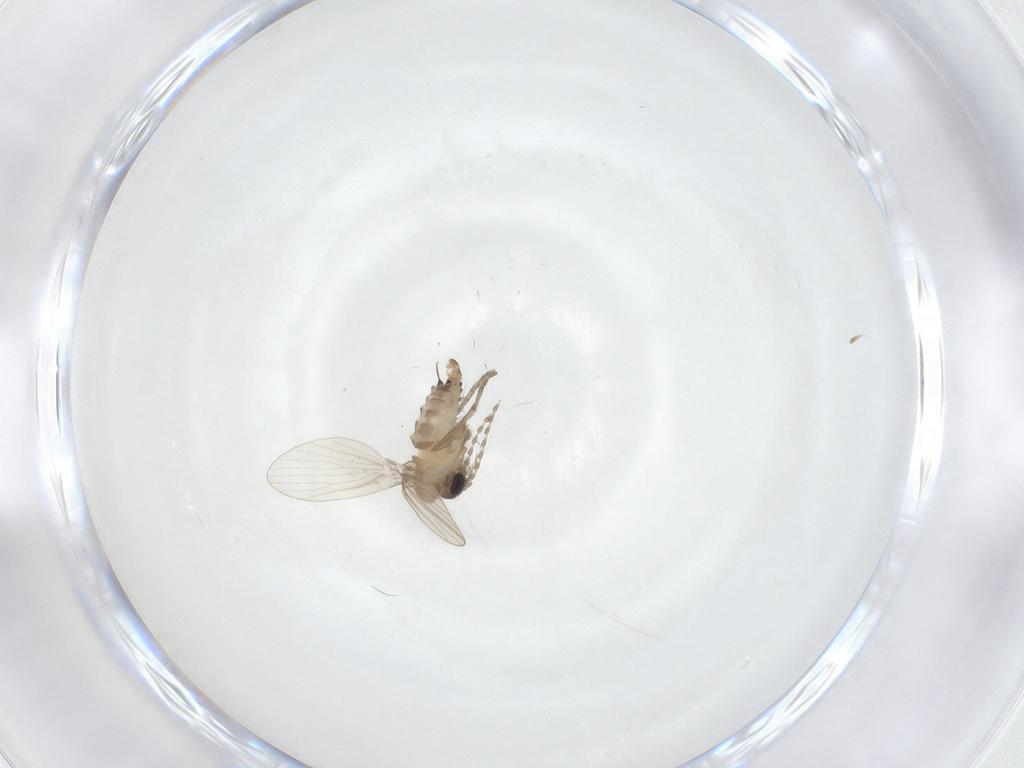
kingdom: Animalia
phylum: Arthropoda
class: Insecta
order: Diptera
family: Psychodidae
